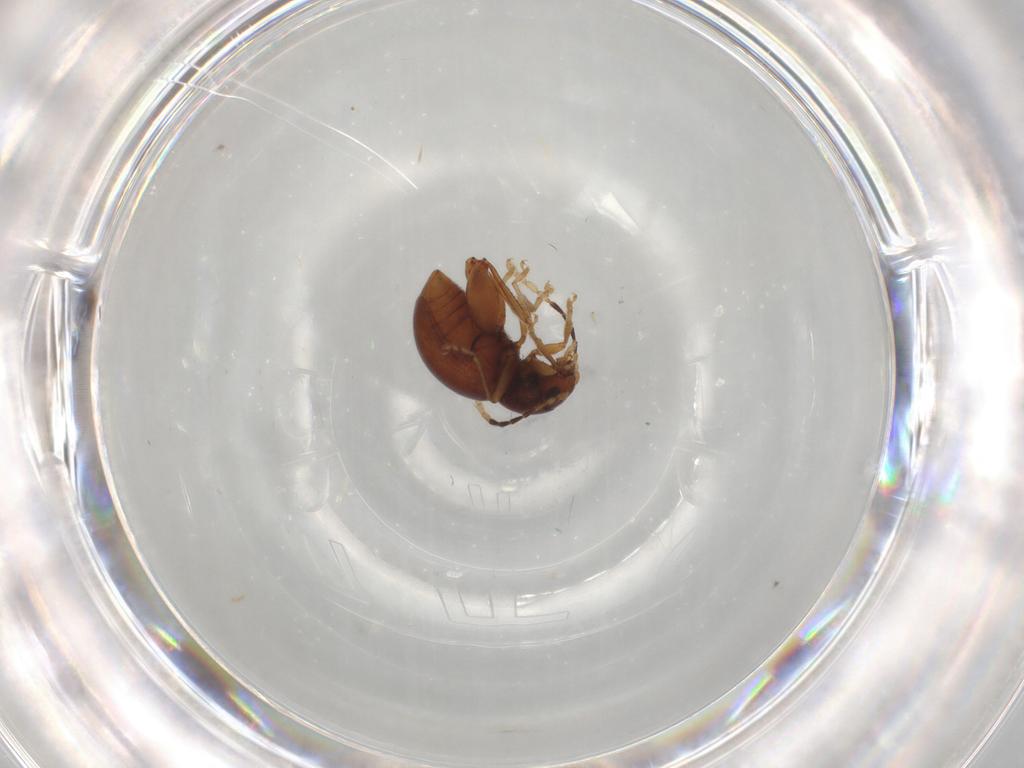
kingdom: Animalia
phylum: Arthropoda
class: Insecta
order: Coleoptera
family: Chrysomelidae
